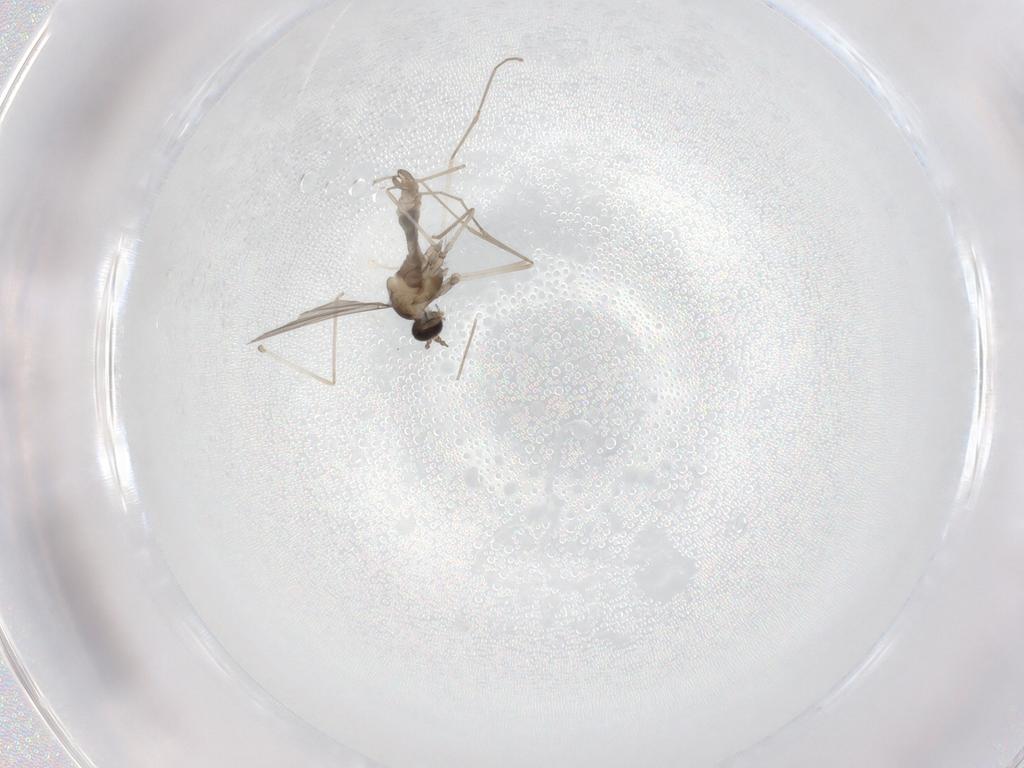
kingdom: Animalia
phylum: Arthropoda
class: Insecta
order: Diptera
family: Cecidomyiidae
